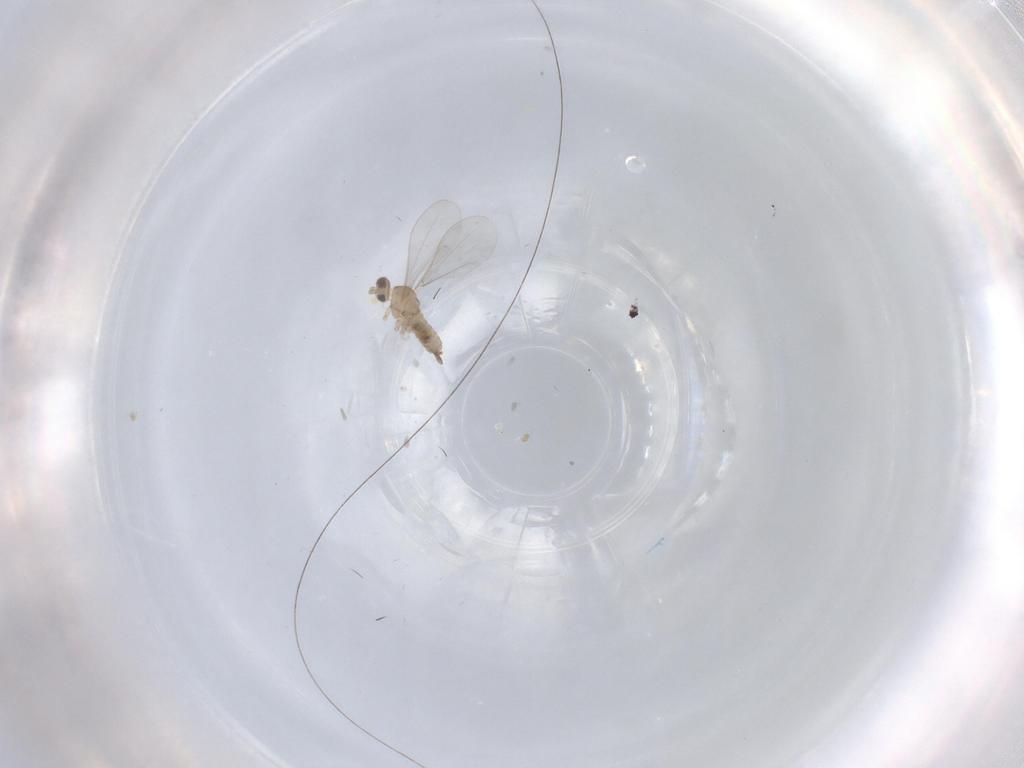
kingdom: Animalia
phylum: Arthropoda
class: Insecta
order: Diptera
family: Cecidomyiidae
